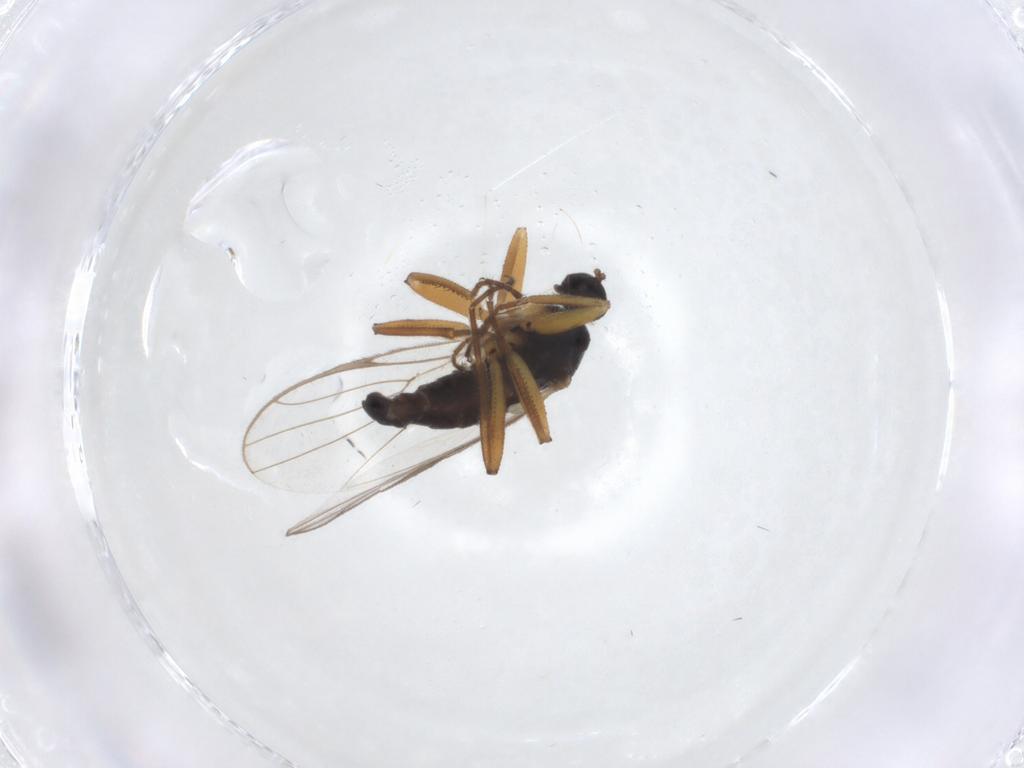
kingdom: Animalia
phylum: Arthropoda
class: Insecta
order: Diptera
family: Hybotidae
